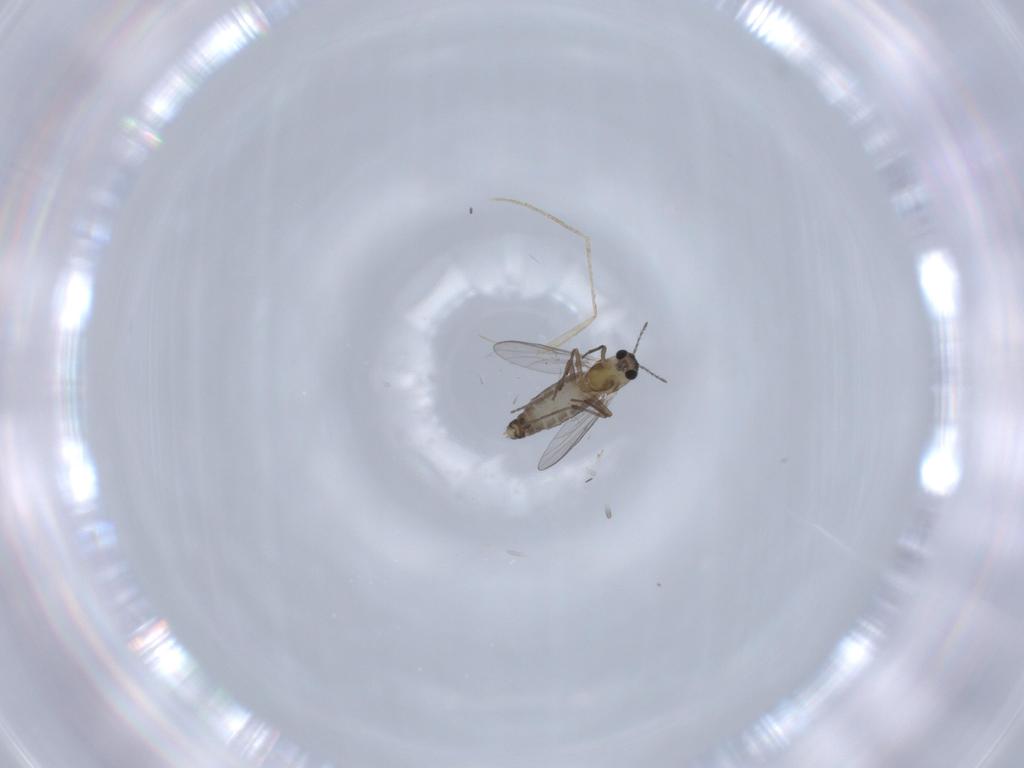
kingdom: Animalia
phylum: Arthropoda
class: Insecta
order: Diptera
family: Chironomidae
